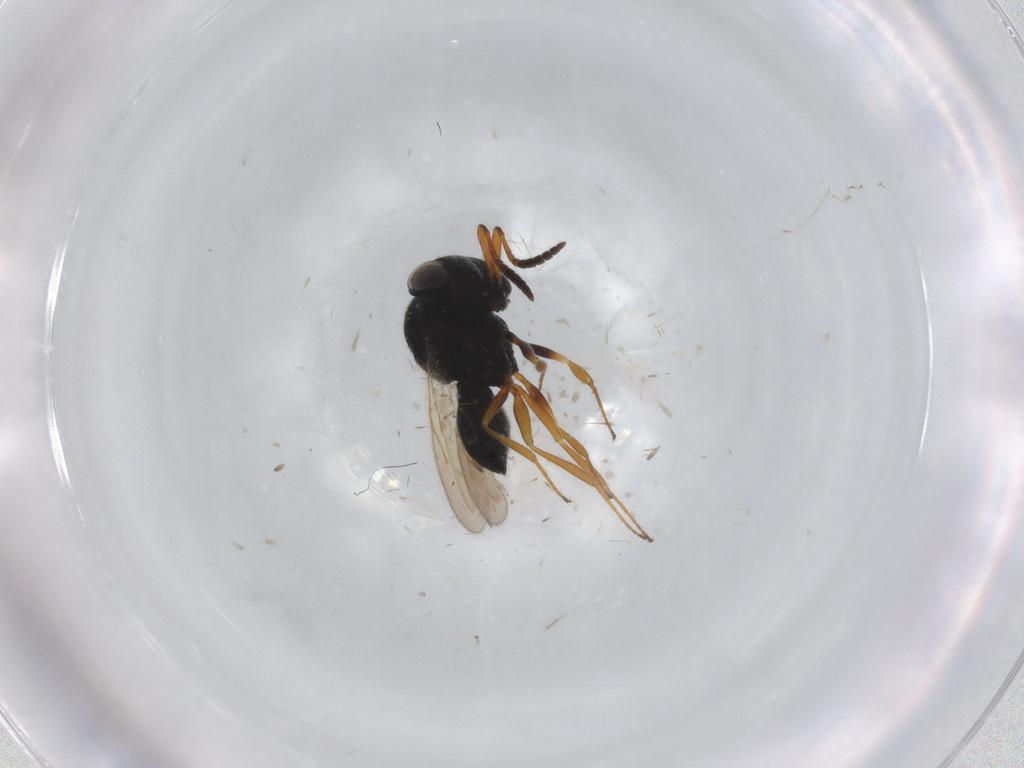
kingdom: Animalia
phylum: Arthropoda
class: Insecta
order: Hymenoptera
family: Scelionidae
